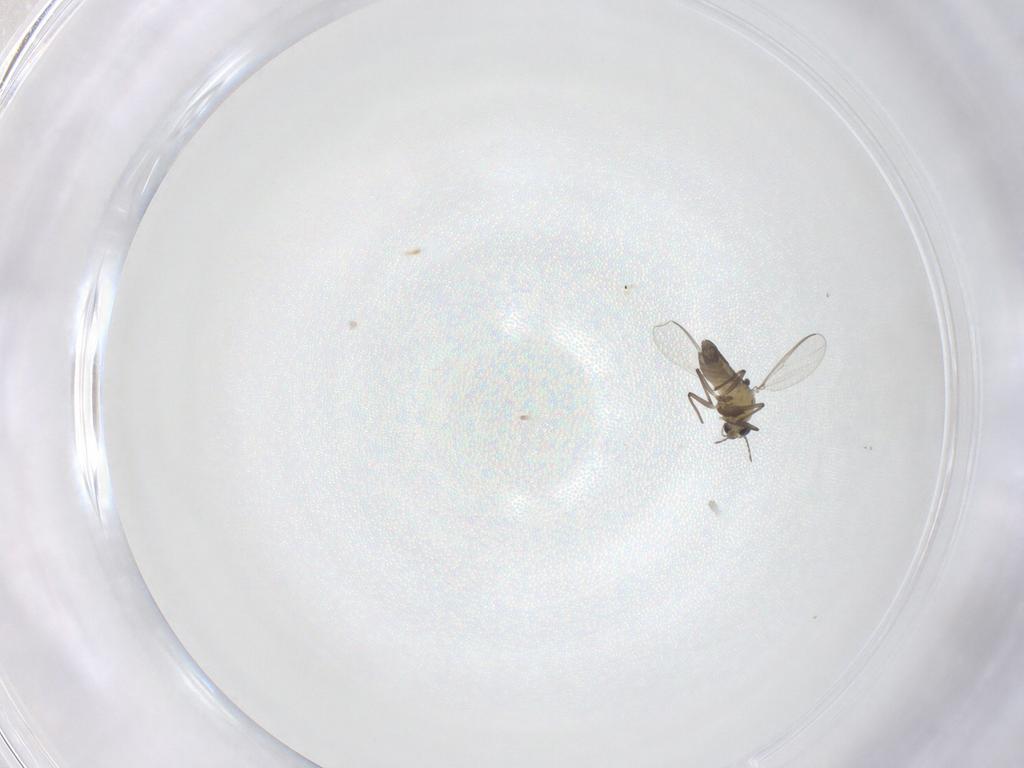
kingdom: Animalia
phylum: Arthropoda
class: Insecta
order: Diptera
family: Chironomidae
